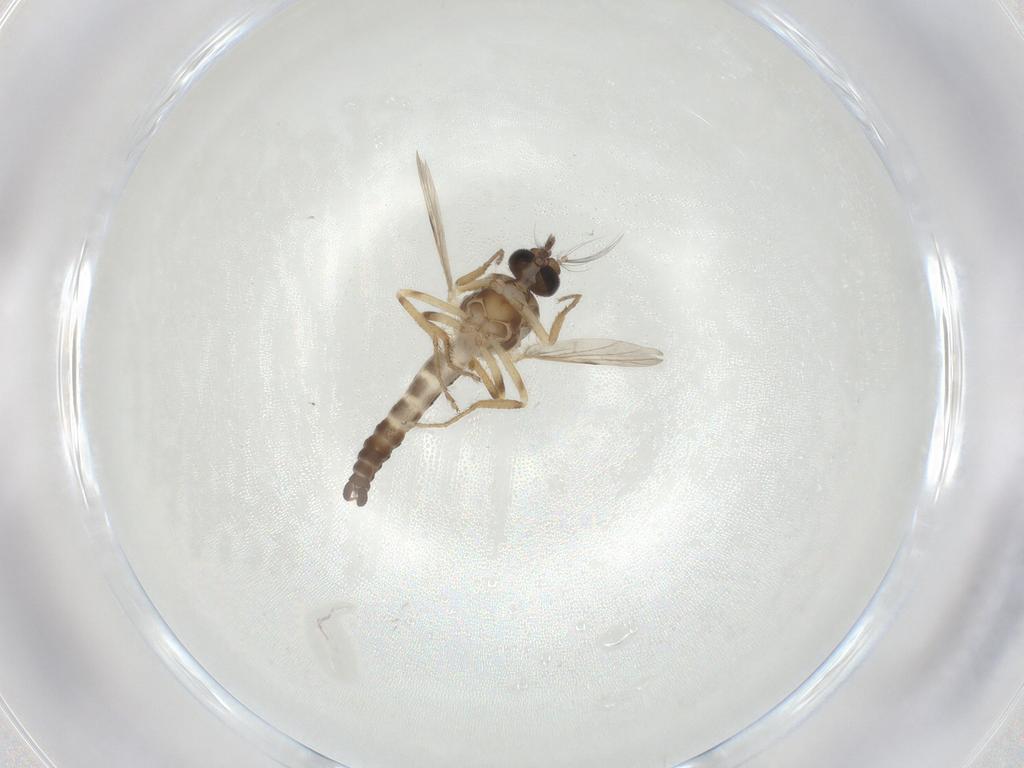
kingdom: Animalia
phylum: Arthropoda
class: Insecta
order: Diptera
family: Ceratopogonidae
